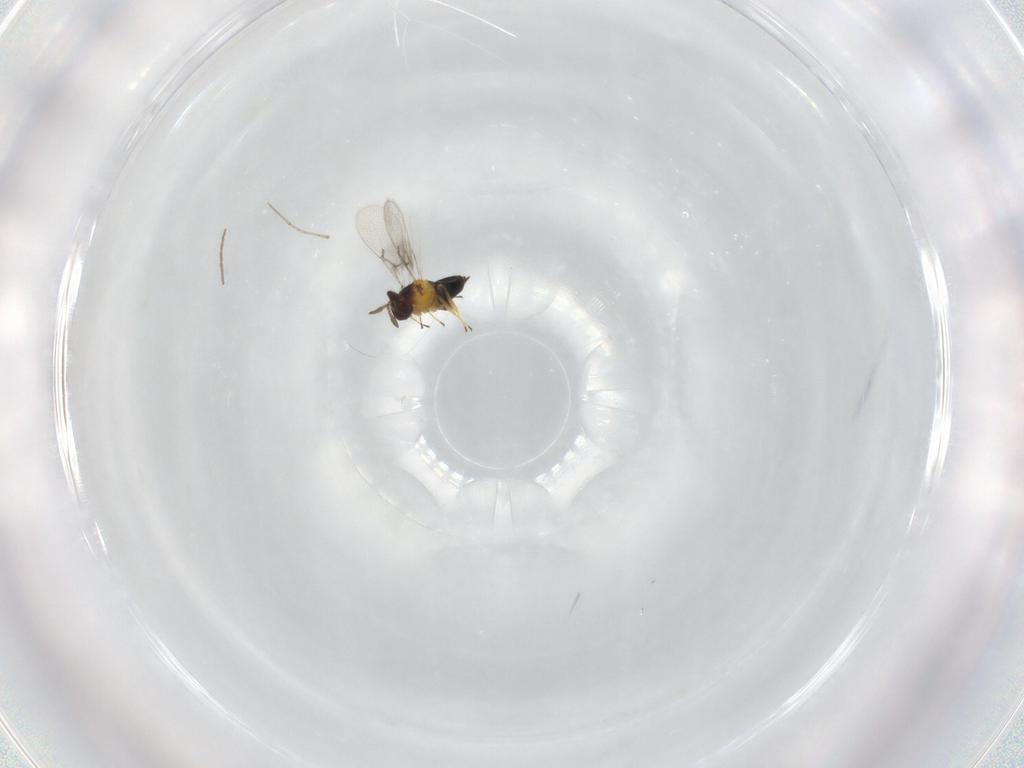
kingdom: Animalia
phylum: Arthropoda
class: Insecta
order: Hymenoptera
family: Trichogrammatidae
